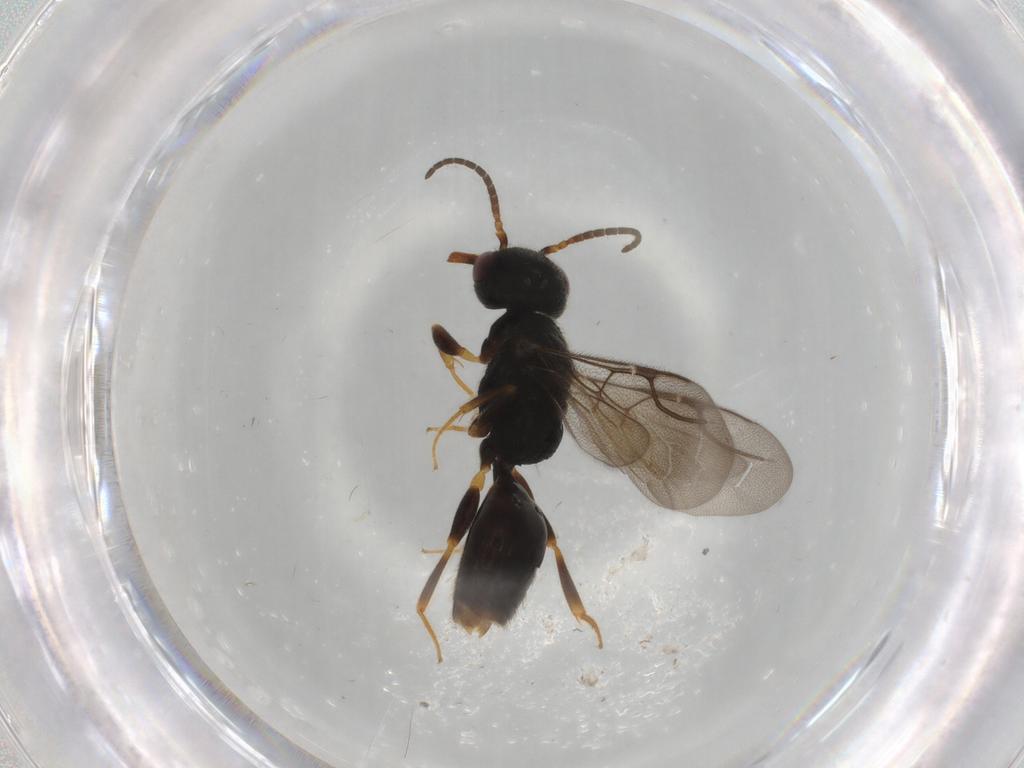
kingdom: Animalia
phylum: Arthropoda
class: Insecta
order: Hymenoptera
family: Bethylidae
